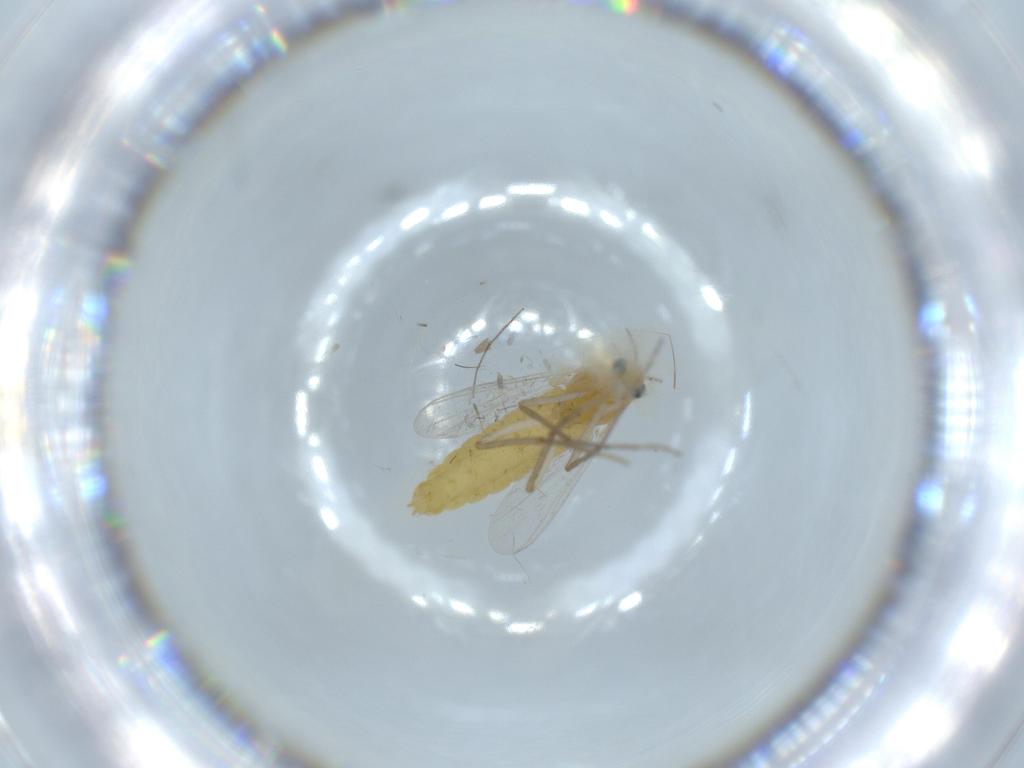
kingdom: Animalia
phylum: Arthropoda
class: Insecta
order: Diptera
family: Chironomidae
